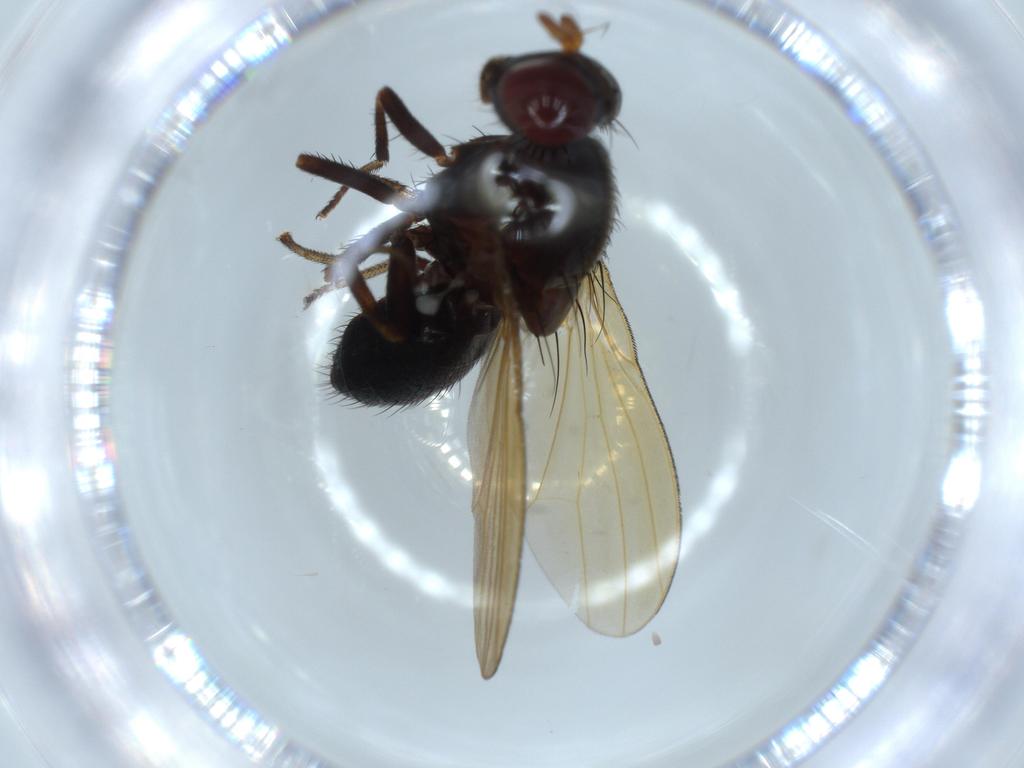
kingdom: Animalia
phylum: Arthropoda
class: Insecta
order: Diptera
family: Lauxaniidae
